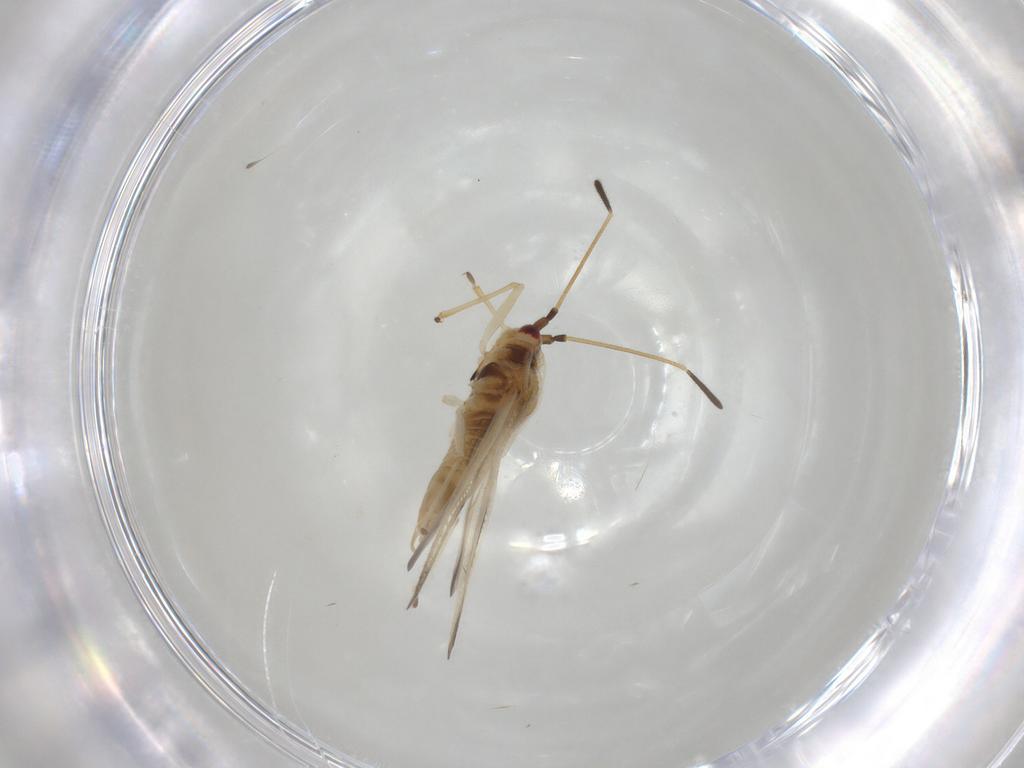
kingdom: Animalia
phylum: Arthropoda
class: Insecta
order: Hemiptera
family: Tingidae
